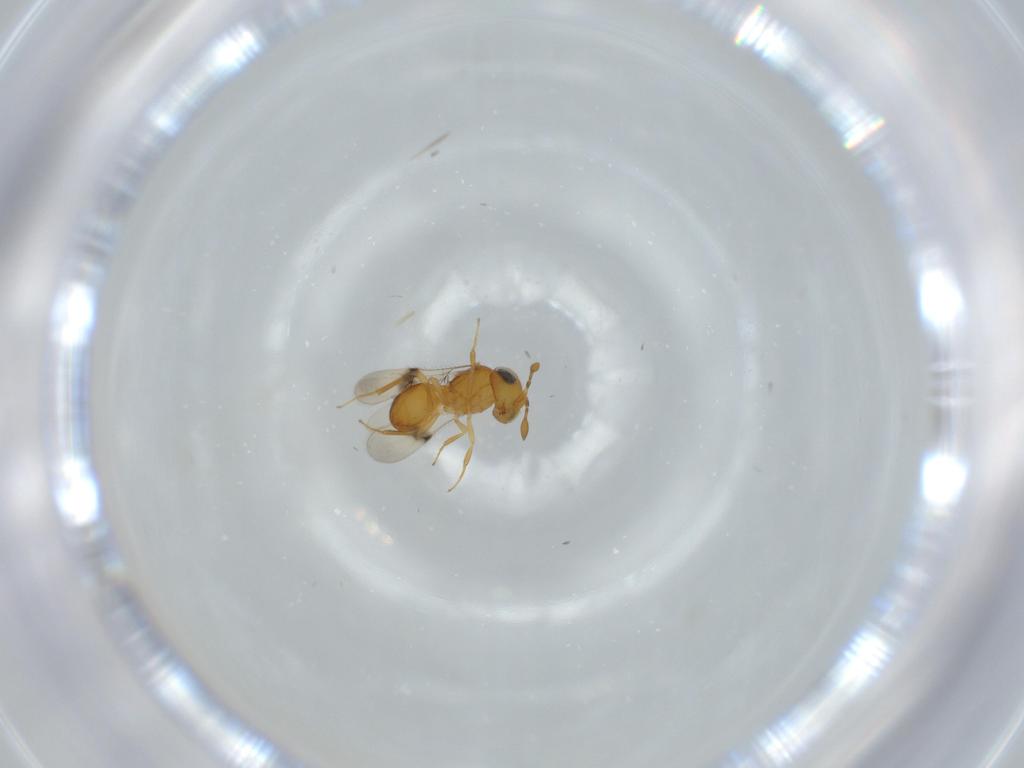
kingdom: Animalia
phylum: Arthropoda
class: Insecta
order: Hymenoptera
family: Scelionidae
